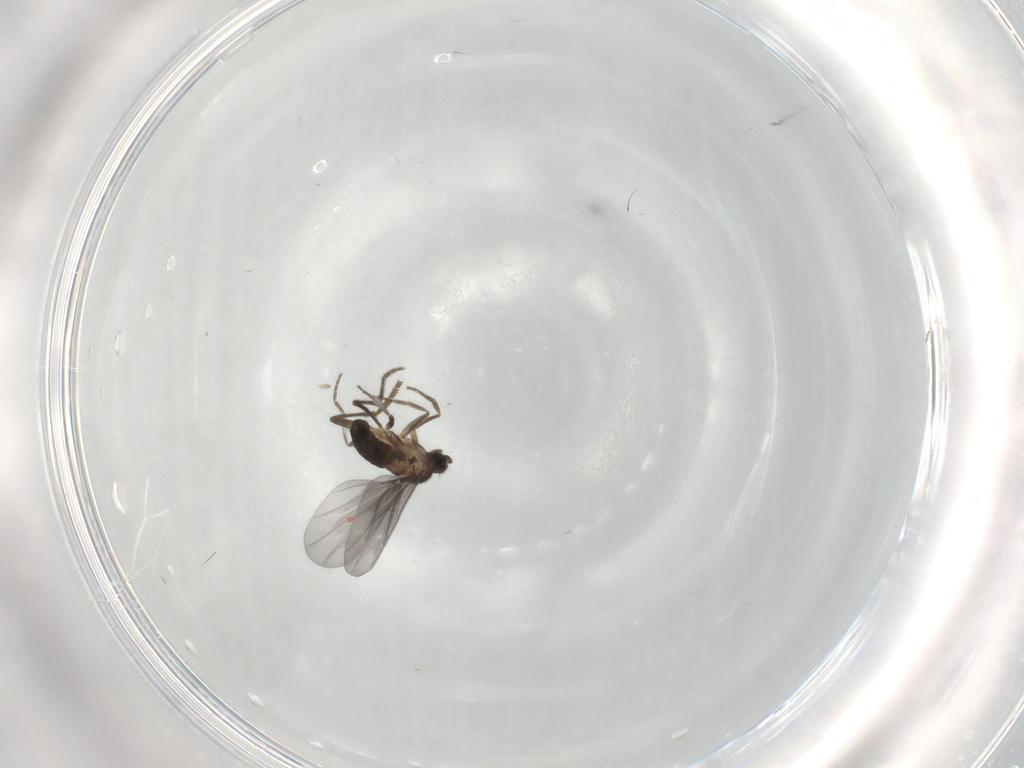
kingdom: Animalia
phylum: Arthropoda
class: Insecta
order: Diptera
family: Phoridae
